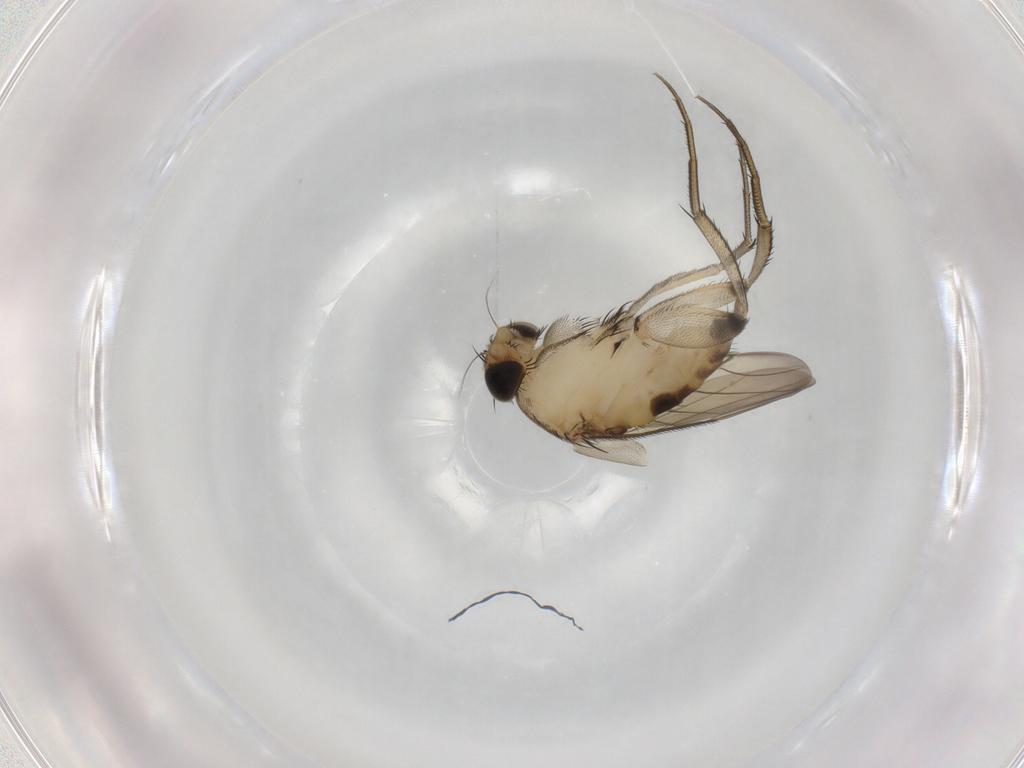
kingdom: Animalia
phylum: Arthropoda
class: Insecta
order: Diptera
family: Phoridae
